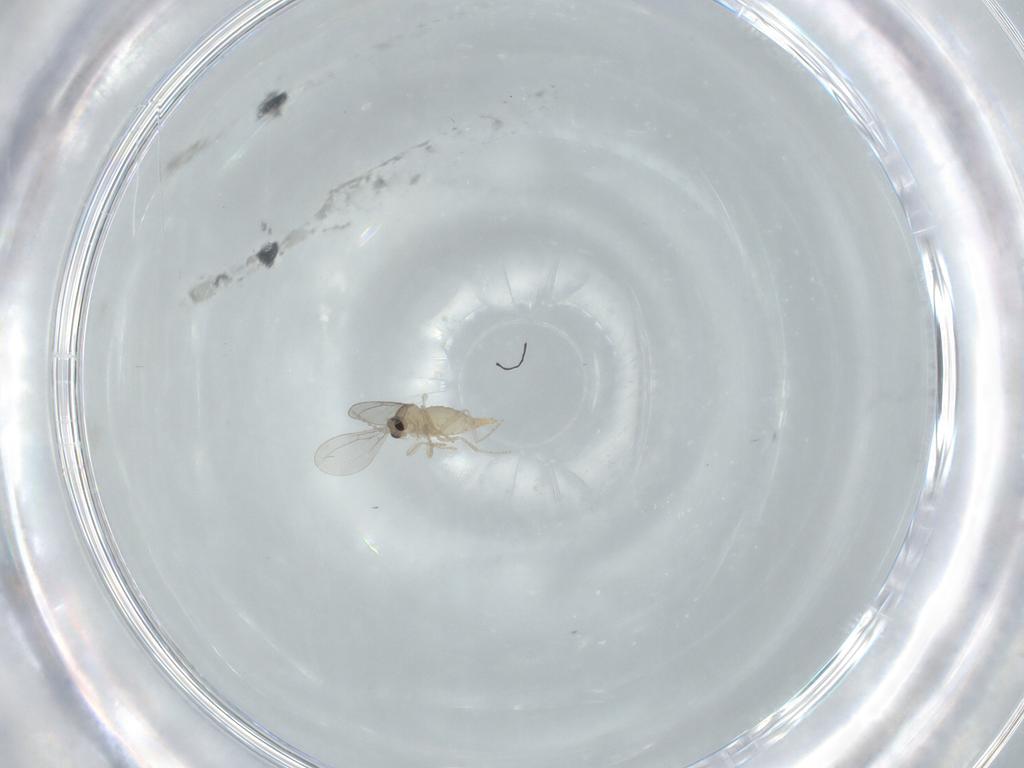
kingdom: Animalia
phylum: Arthropoda
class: Insecta
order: Diptera
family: Cecidomyiidae
